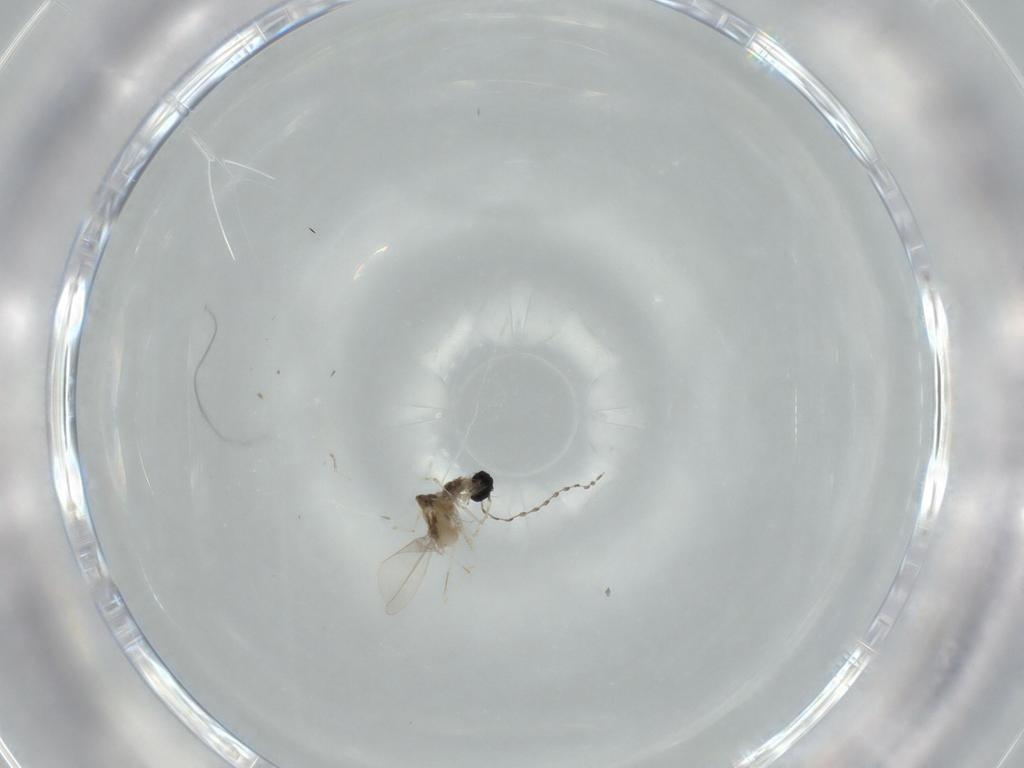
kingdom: Animalia
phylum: Arthropoda
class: Insecta
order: Diptera
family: Cecidomyiidae
